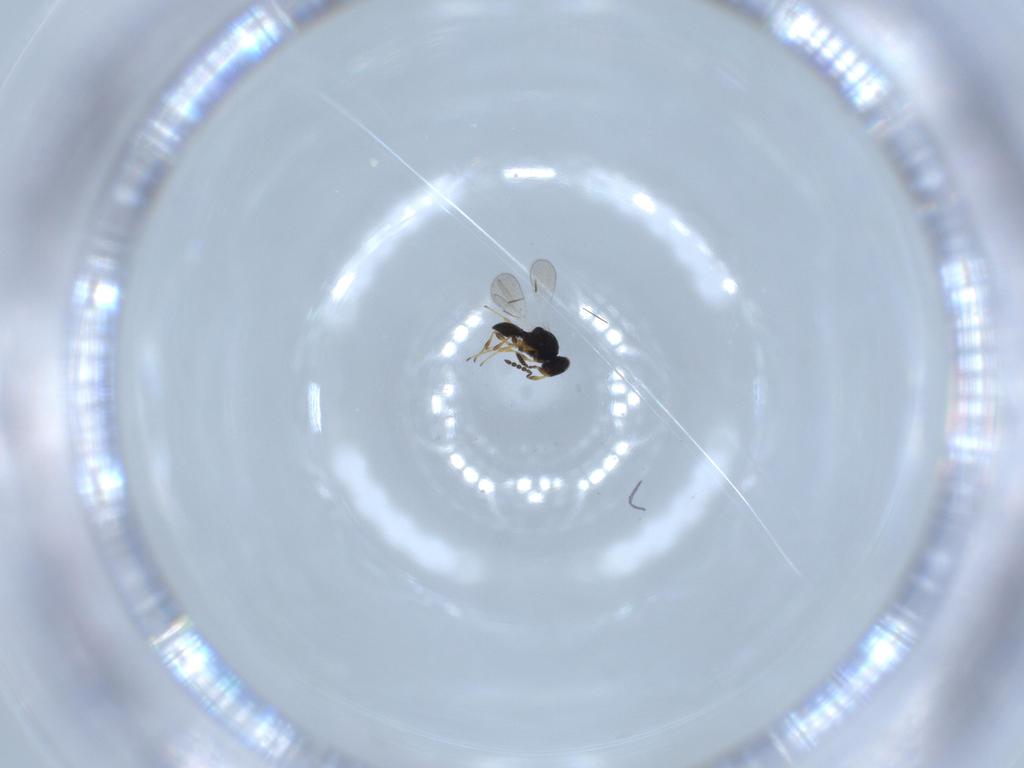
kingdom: Animalia
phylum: Arthropoda
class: Insecta
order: Hymenoptera
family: Platygastridae
